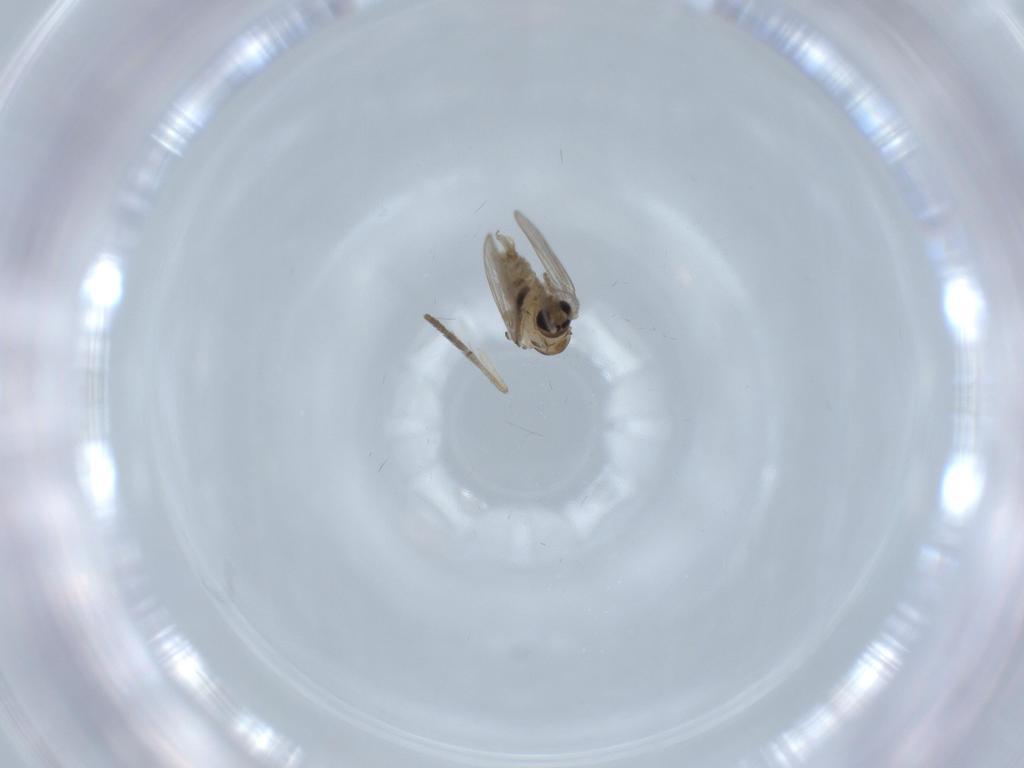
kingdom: Animalia
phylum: Arthropoda
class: Insecta
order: Diptera
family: Psychodidae
